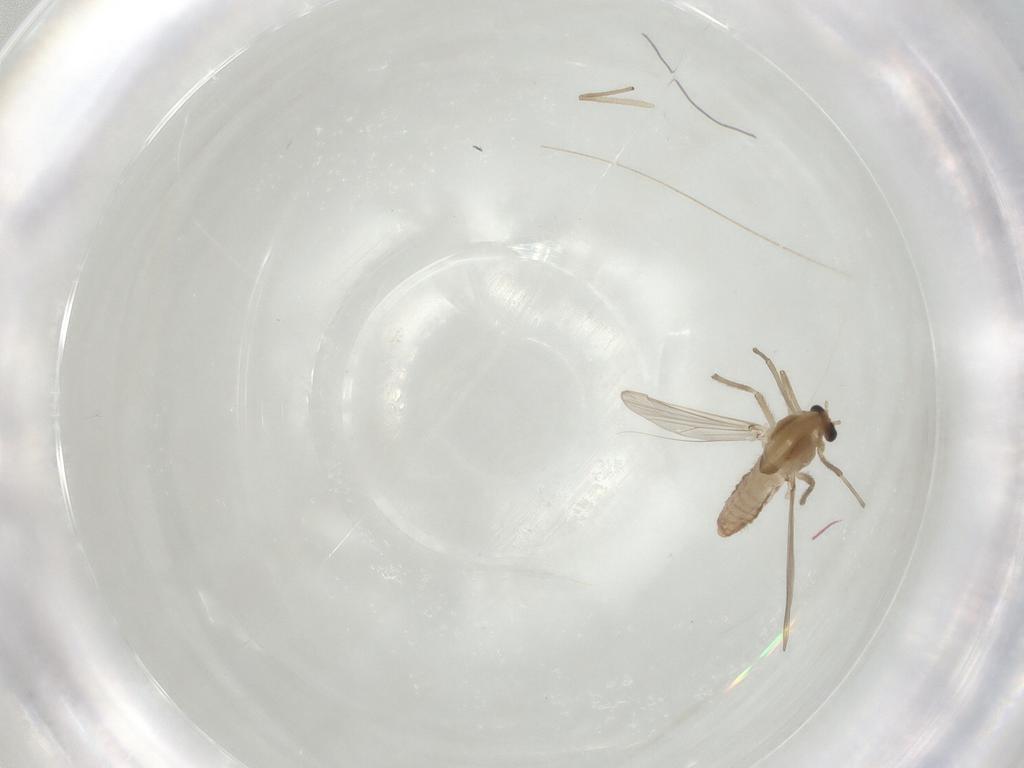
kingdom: Animalia
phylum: Arthropoda
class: Insecta
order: Diptera
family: Chironomidae
